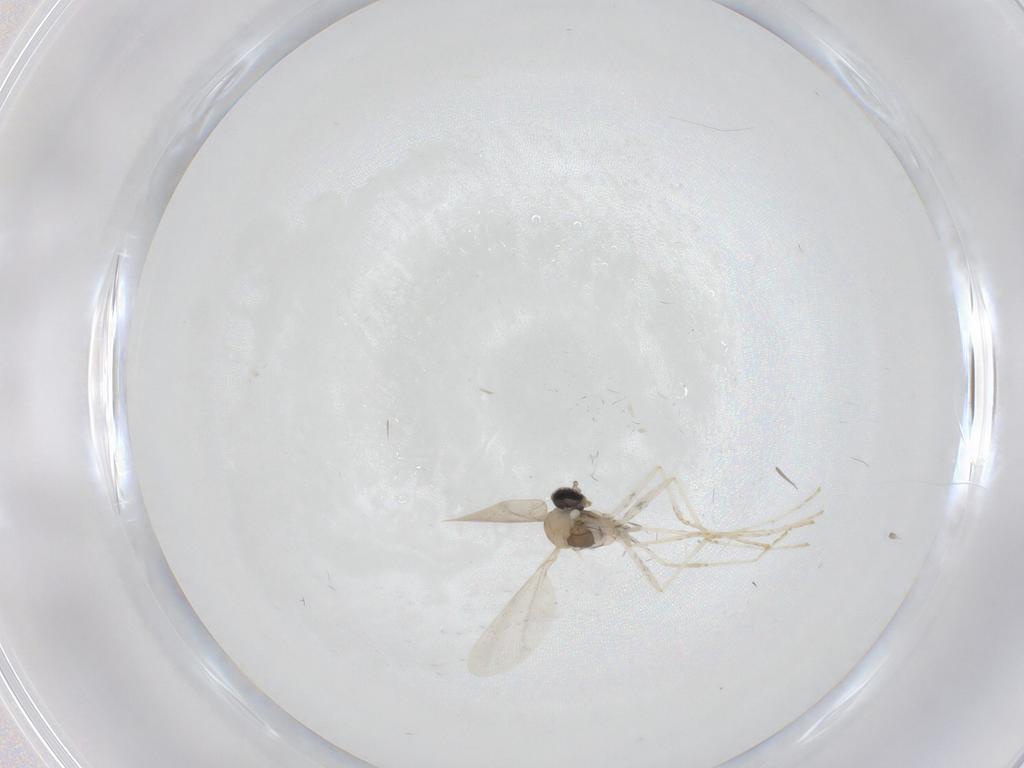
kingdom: Animalia
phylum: Arthropoda
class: Insecta
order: Diptera
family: Cecidomyiidae
